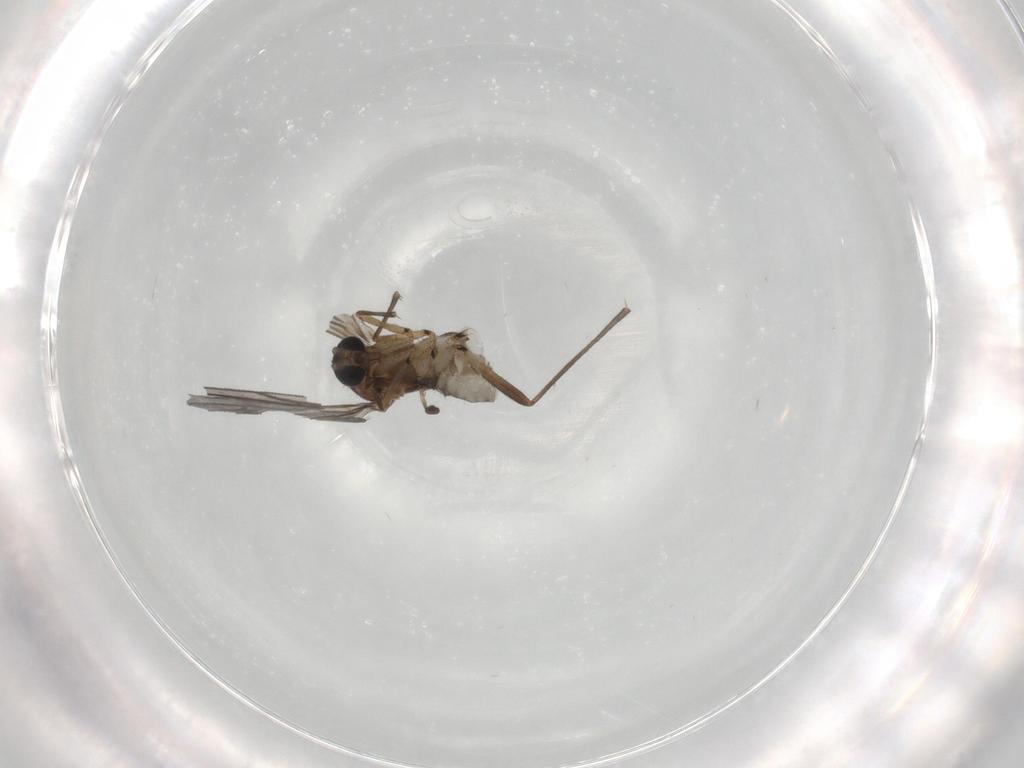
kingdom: Animalia
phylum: Arthropoda
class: Insecta
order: Diptera
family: Sciaridae
